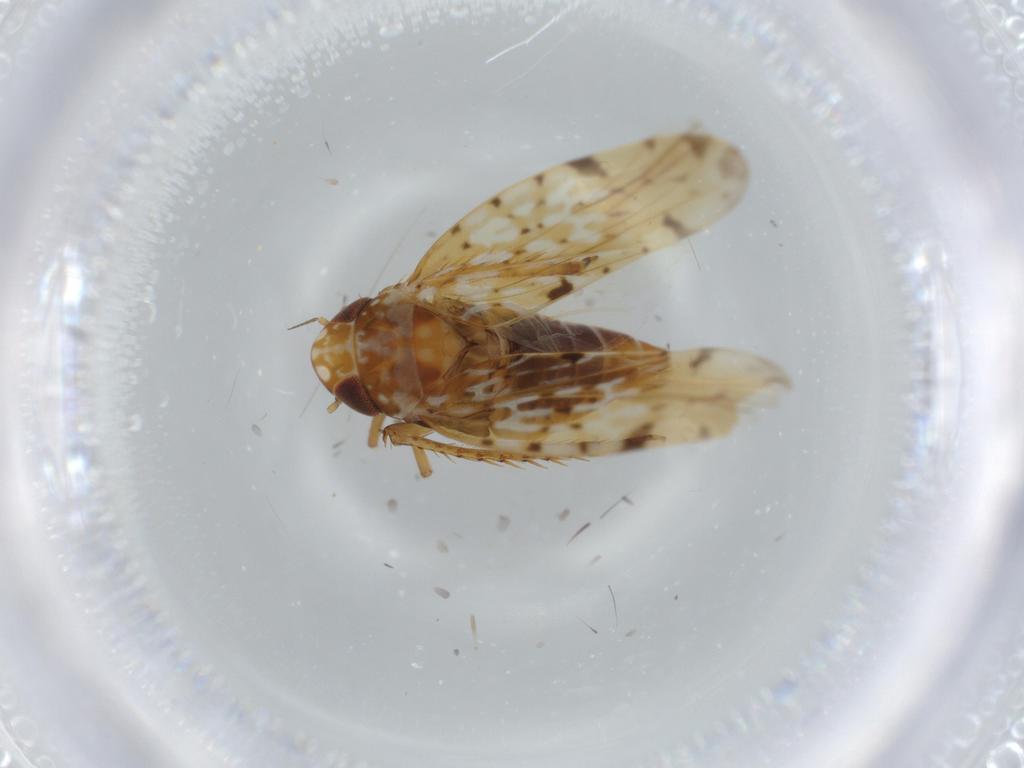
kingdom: Animalia
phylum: Arthropoda
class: Insecta
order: Hemiptera
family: Cicadellidae
